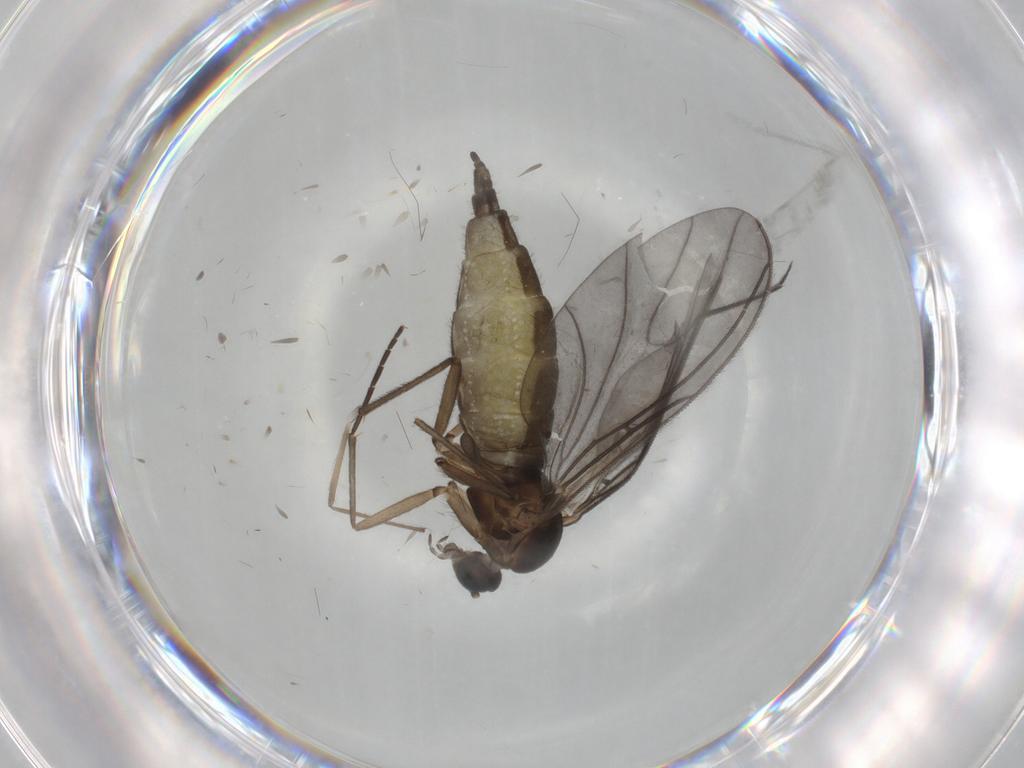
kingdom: Animalia
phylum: Arthropoda
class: Insecta
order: Diptera
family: Sciaridae
